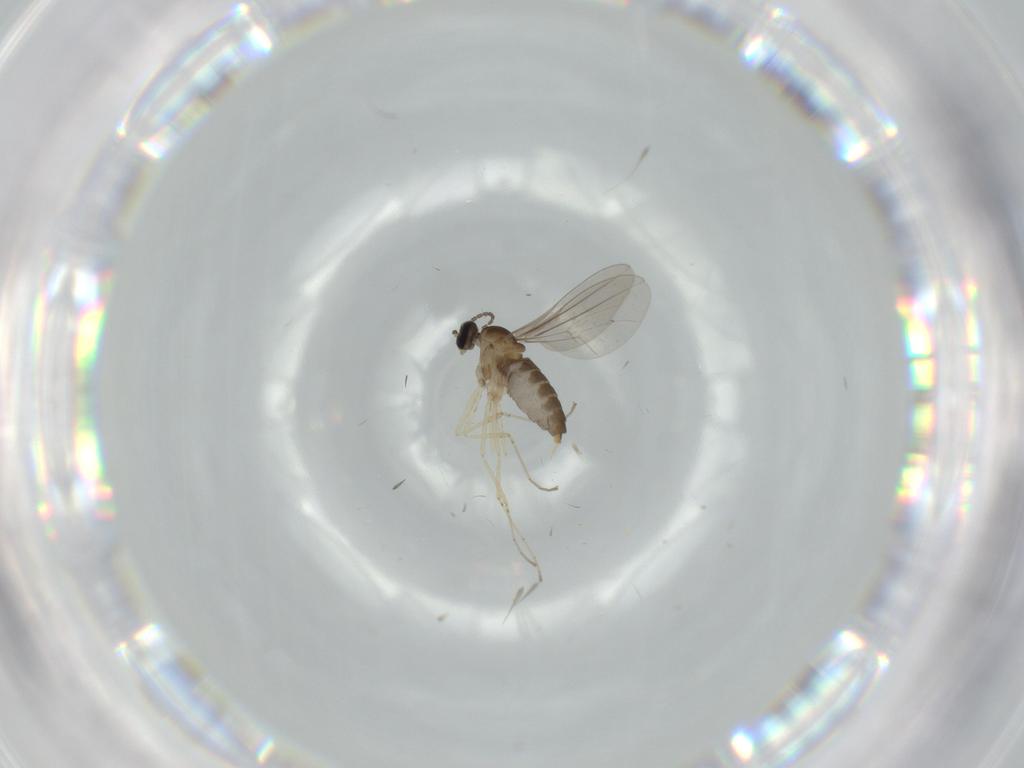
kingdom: Animalia
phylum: Arthropoda
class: Insecta
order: Diptera
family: Cecidomyiidae
